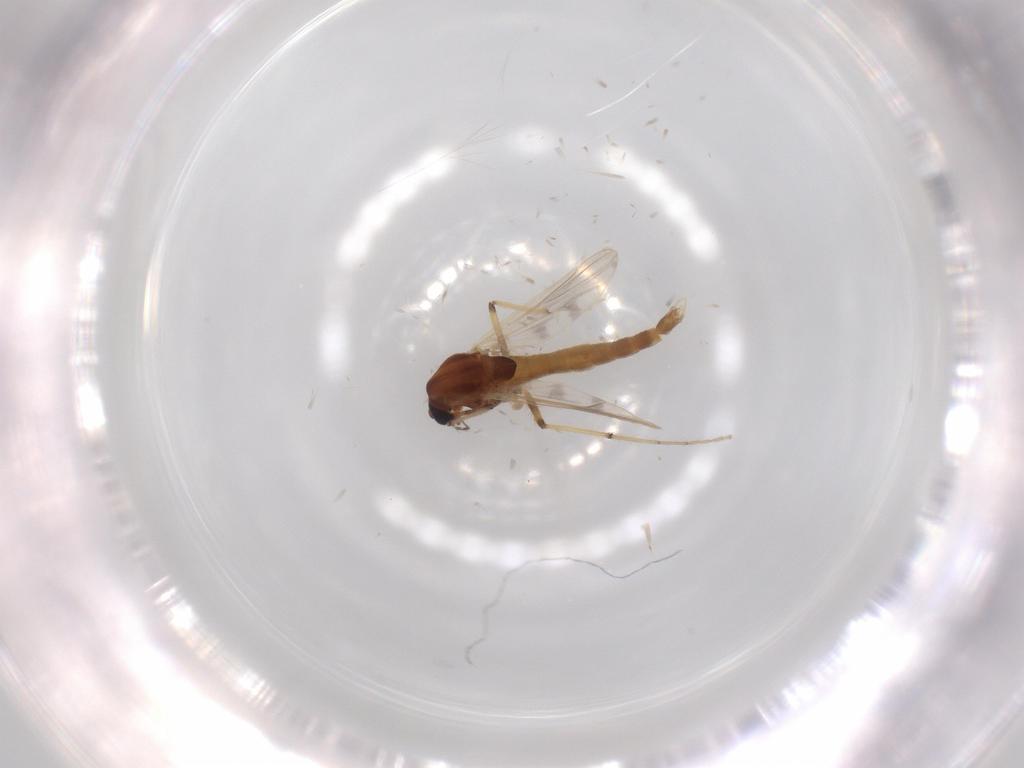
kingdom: Animalia
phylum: Arthropoda
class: Insecta
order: Diptera
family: Chironomidae
